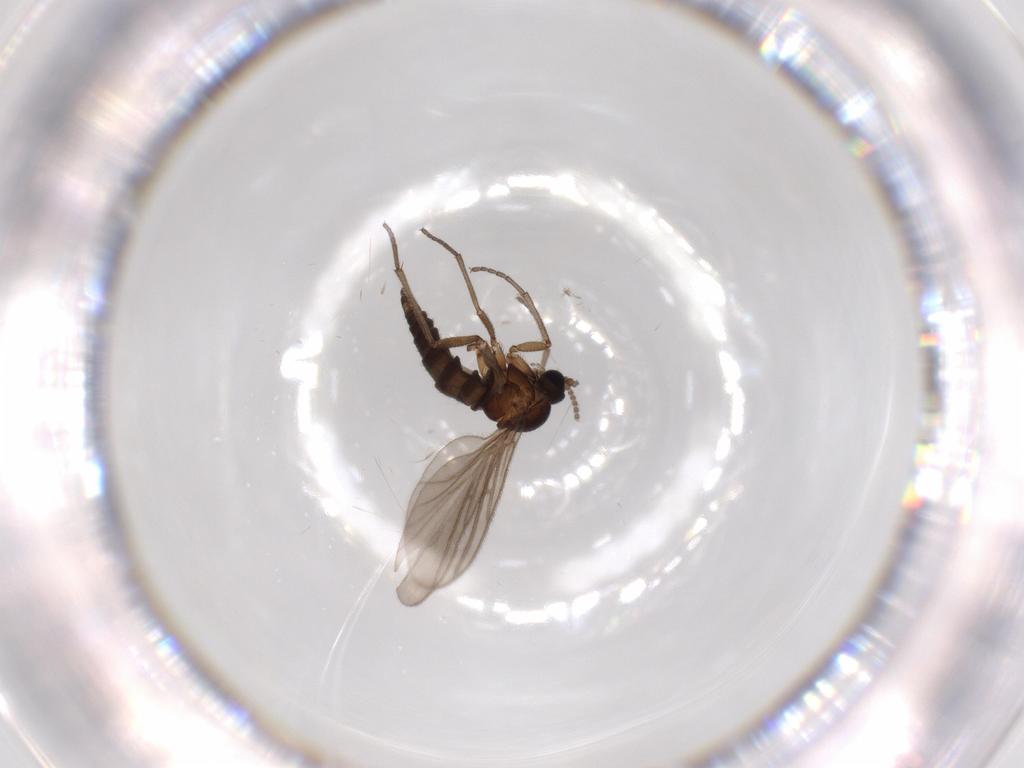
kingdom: Animalia
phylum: Arthropoda
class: Insecta
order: Diptera
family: Sciaridae
